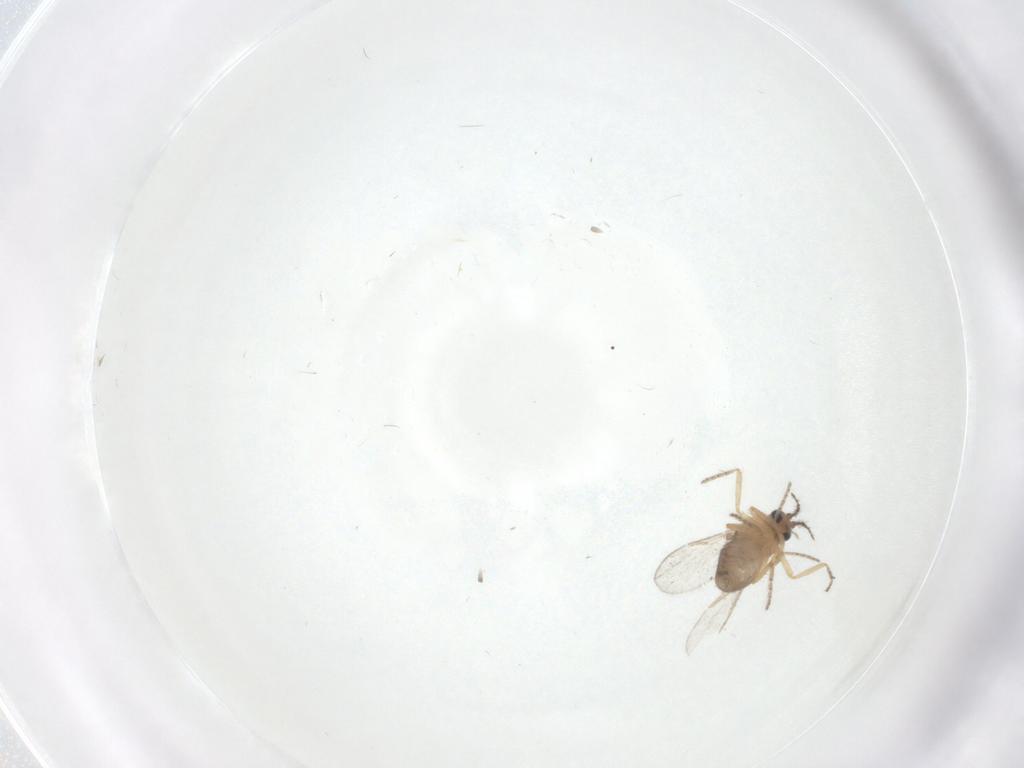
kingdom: Animalia
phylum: Arthropoda
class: Insecta
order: Diptera
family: Ceratopogonidae
